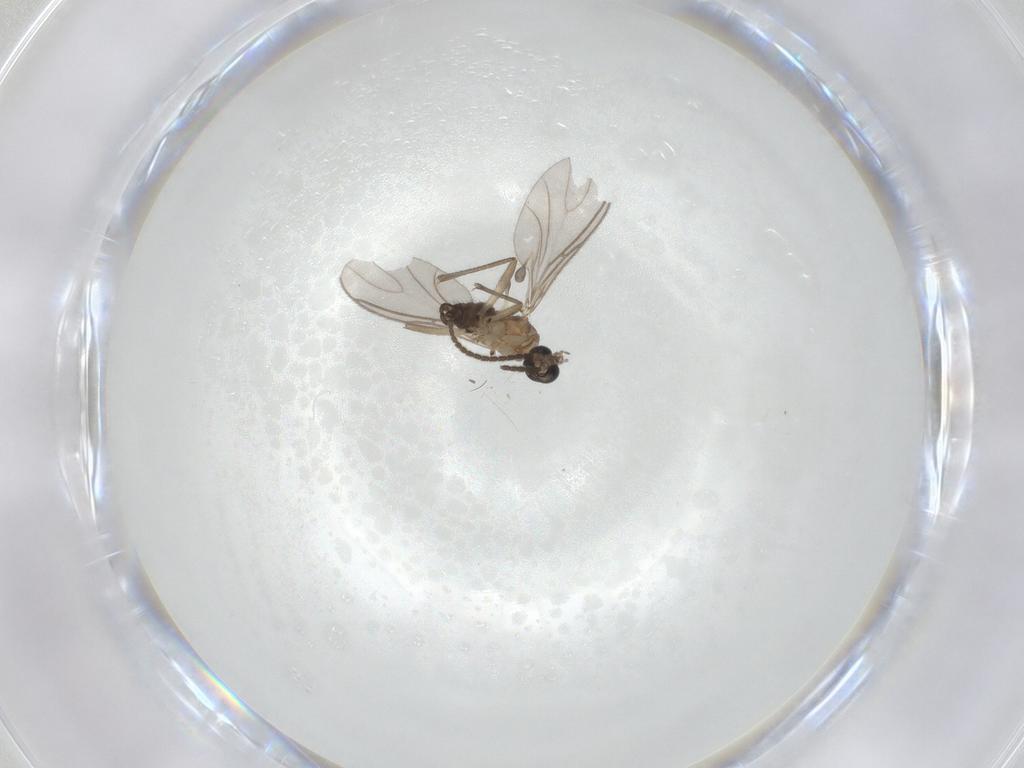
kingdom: Animalia
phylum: Arthropoda
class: Insecta
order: Diptera
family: Sciaridae
